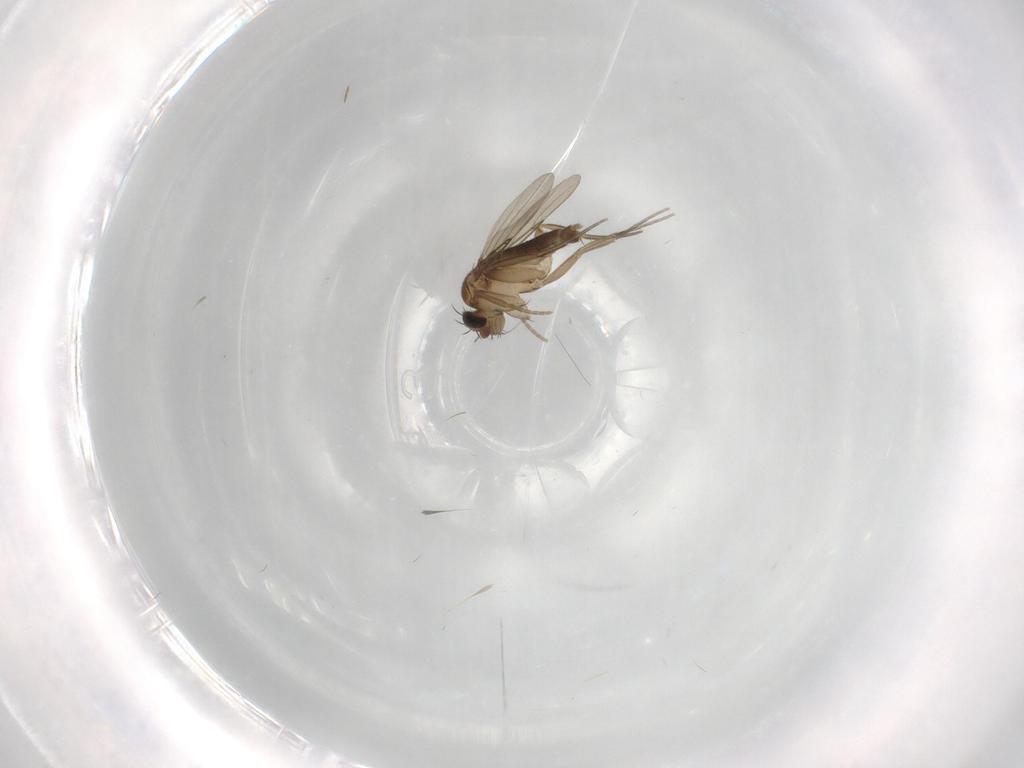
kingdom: Animalia
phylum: Arthropoda
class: Insecta
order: Diptera
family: Phoridae
